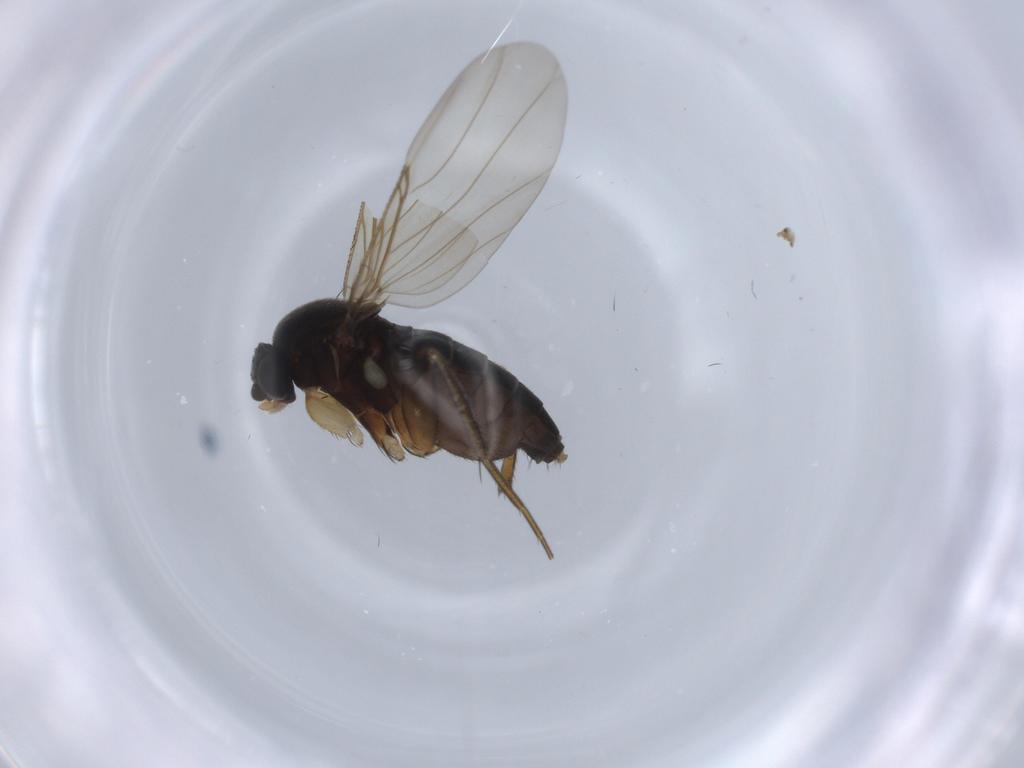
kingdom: Animalia
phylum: Arthropoda
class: Insecta
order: Diptera
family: Phoridae
